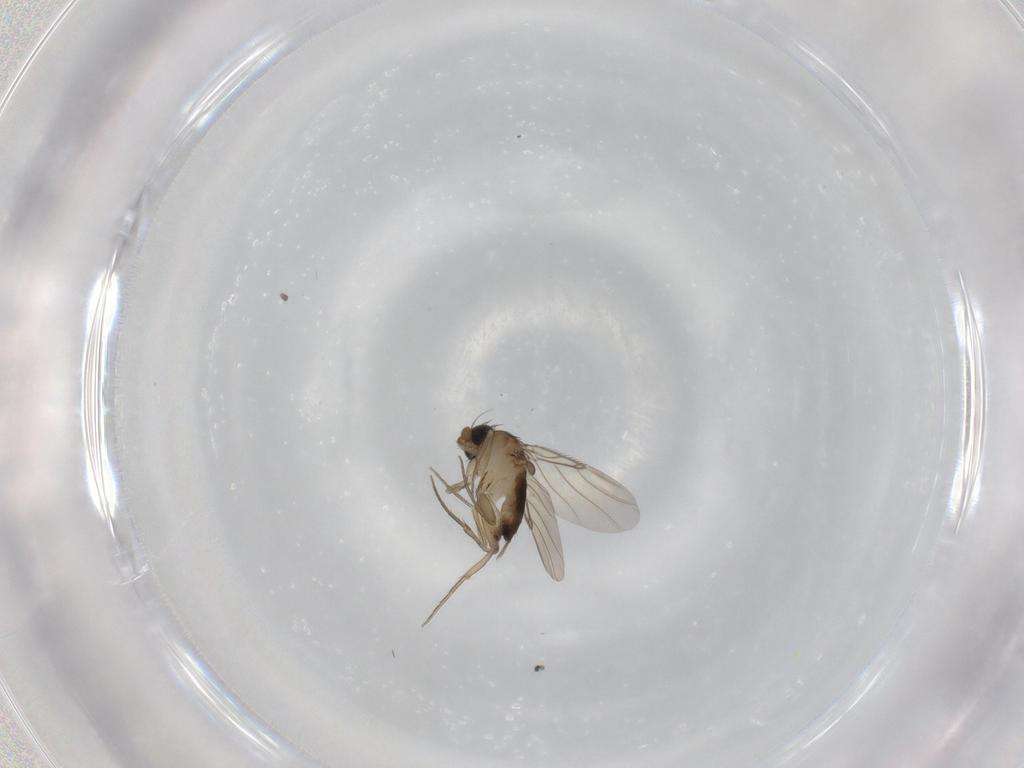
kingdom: Animalia
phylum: Arthropoda
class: Insecta
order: Diptera
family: Phoridae
